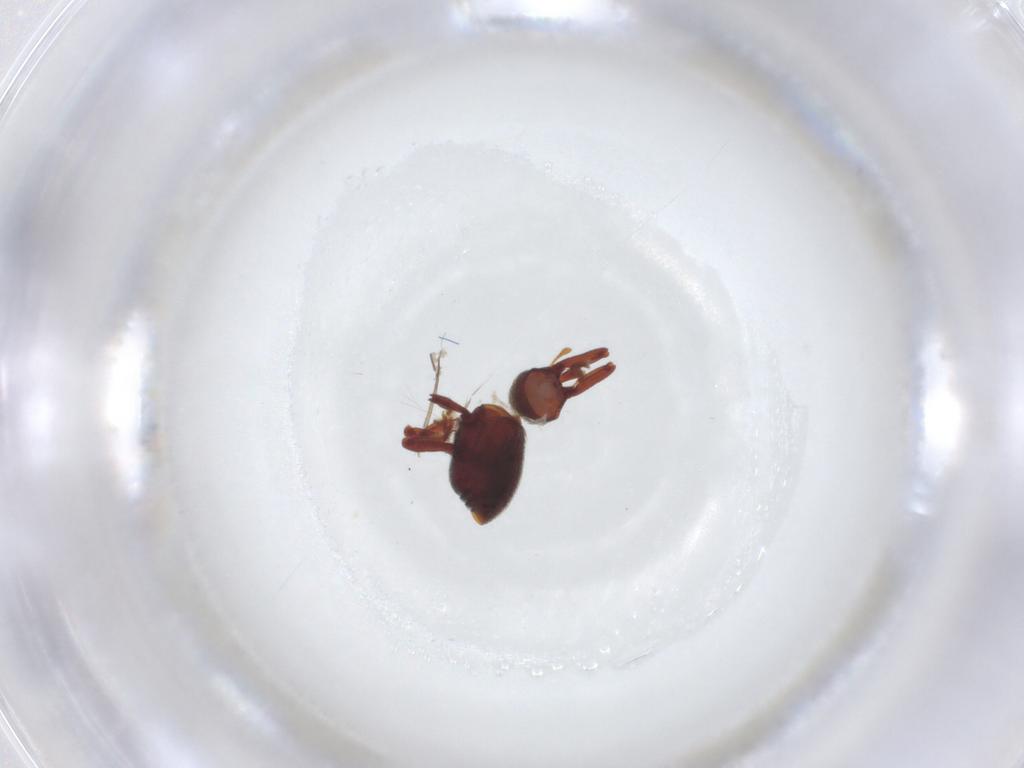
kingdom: Animalia
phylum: Arthropoda
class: Insecta
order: Coleoptera
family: Curculionidae
